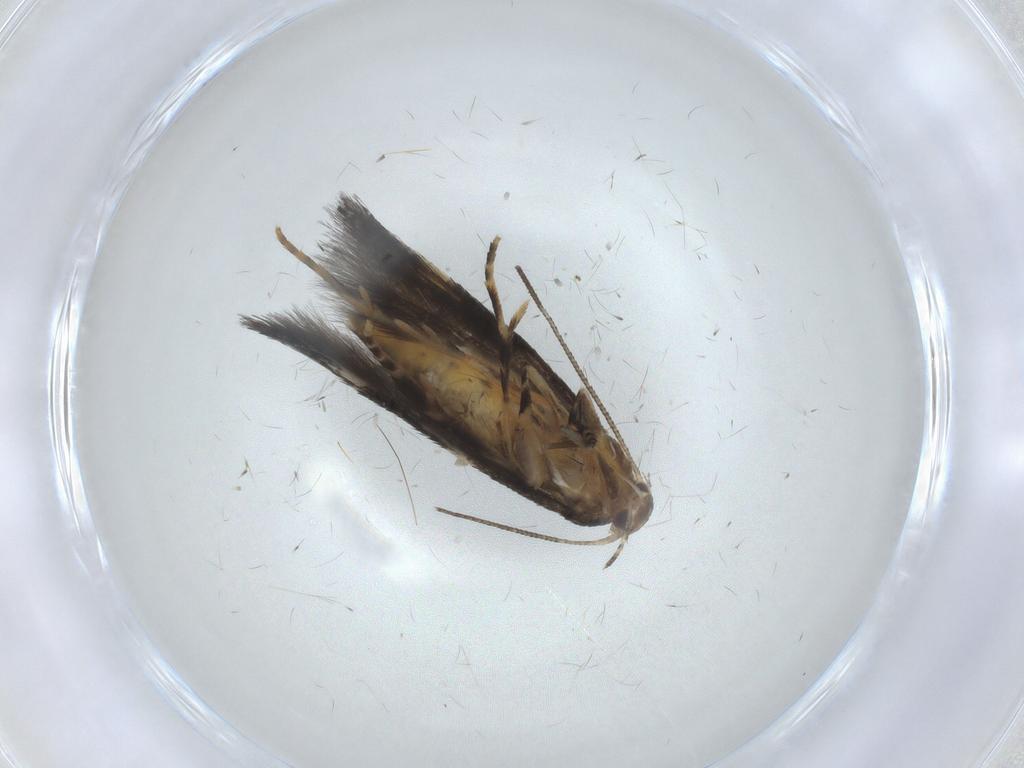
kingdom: Animalia
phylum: Arthropoda
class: Insecta
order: Lepidoptera
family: Elachistidae
